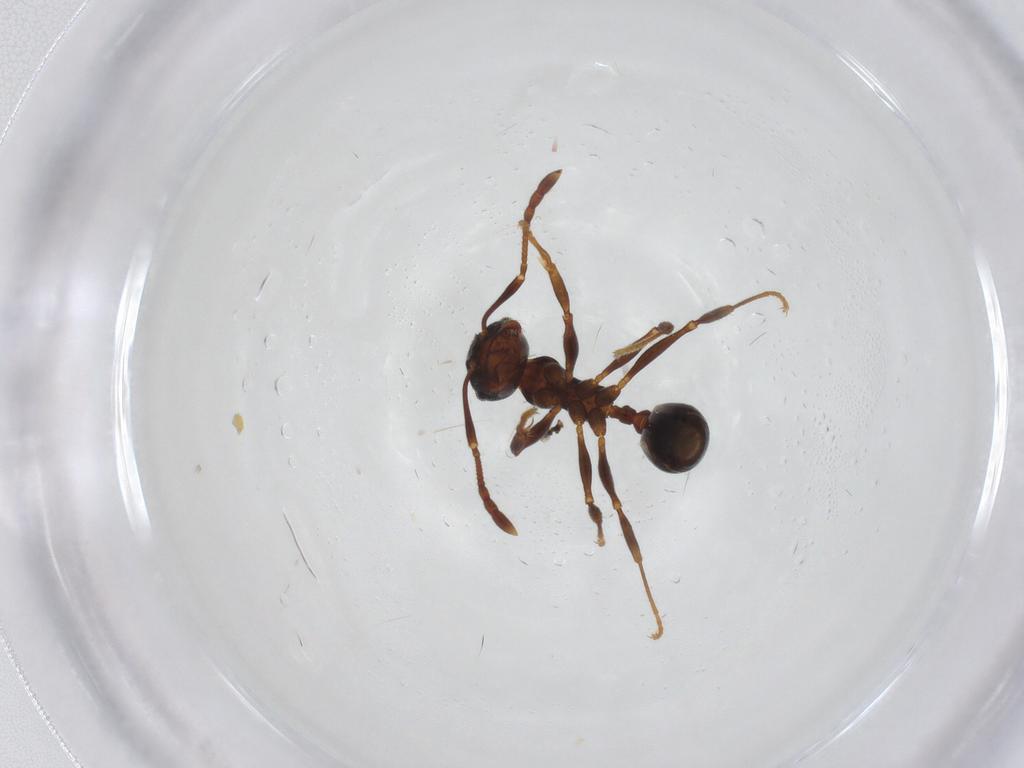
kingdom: Animalia
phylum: Arthropoda
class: Insecta
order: Hymenoptera
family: Formicidae
